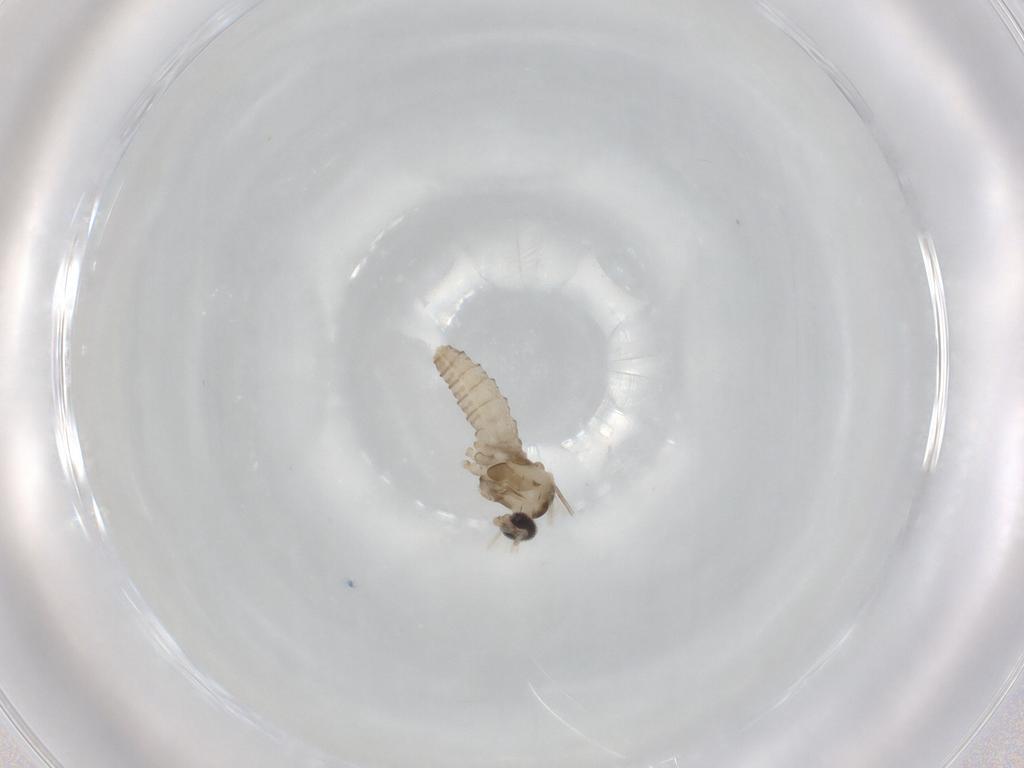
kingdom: Animalia
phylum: Arthropoda
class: Insecta
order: Diptera
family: Cecidomyiidae
